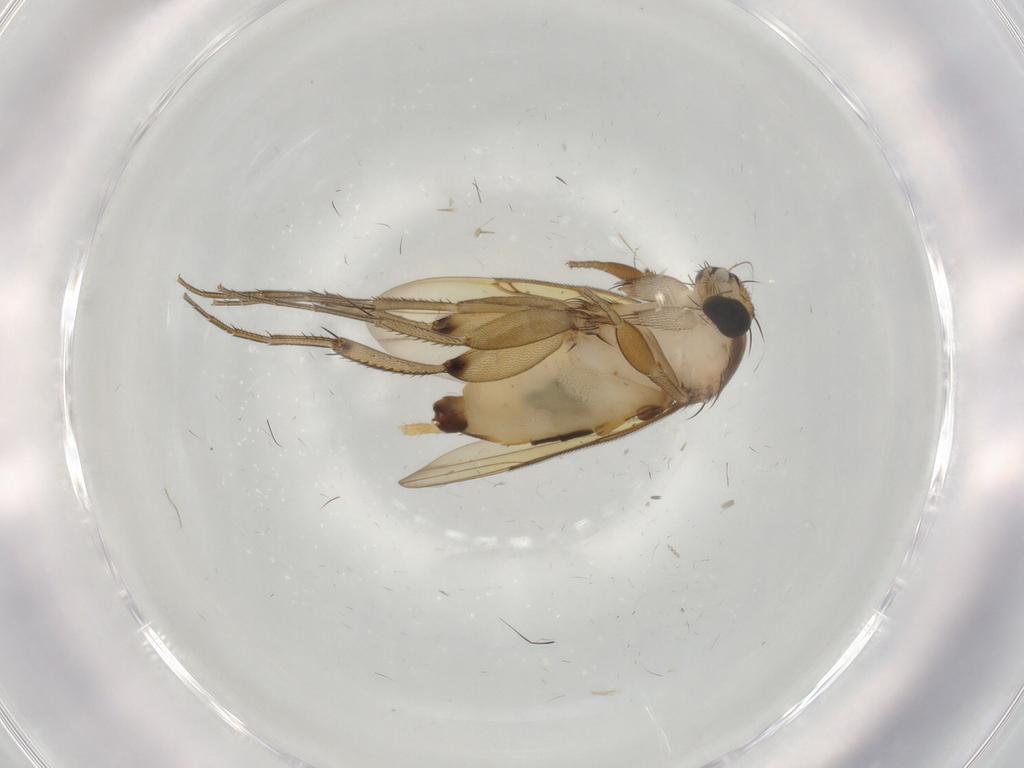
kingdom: Animalia
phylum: Arthropoda
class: Insecta
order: Diptera
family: Phoridae
